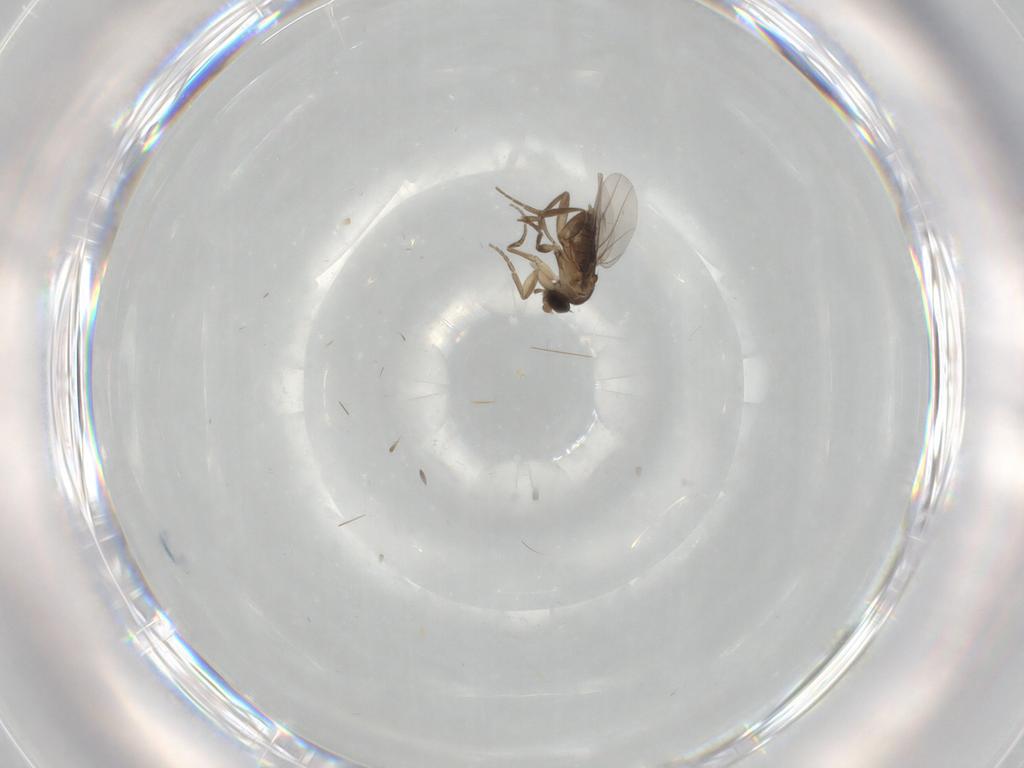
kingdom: Animalia
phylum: Arthropoda
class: Insecta
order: Diptera
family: Phoridae
